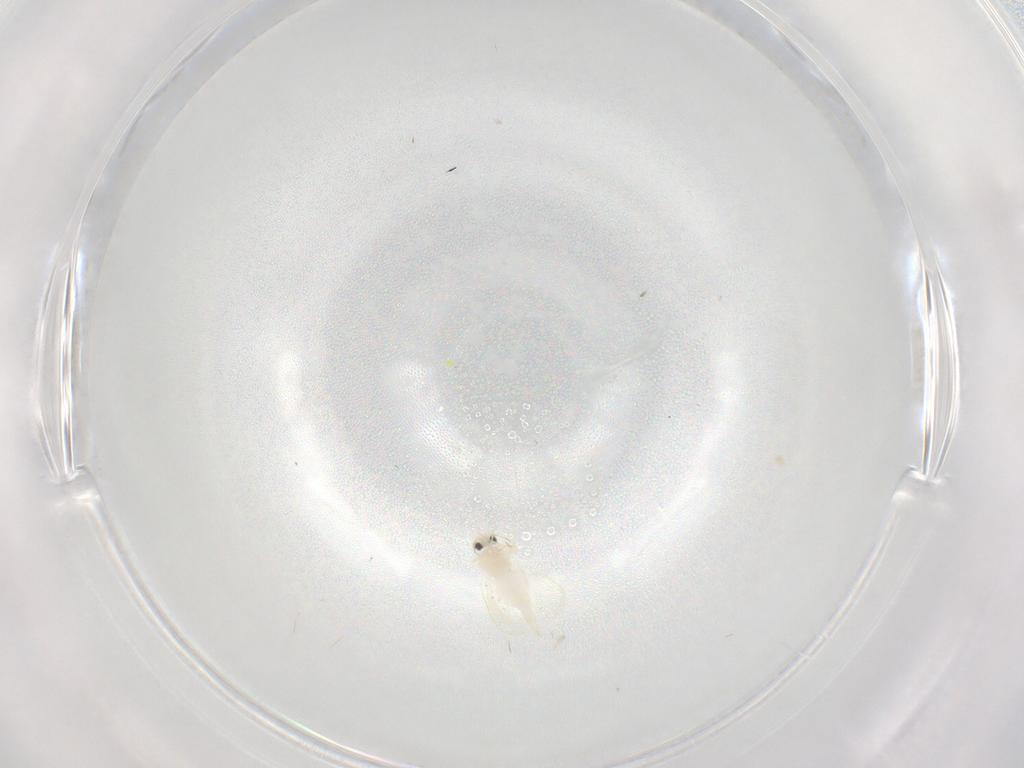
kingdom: Animalia
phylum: Arthropoda
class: Insecta
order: Hemiptera
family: Aleyrodidae
